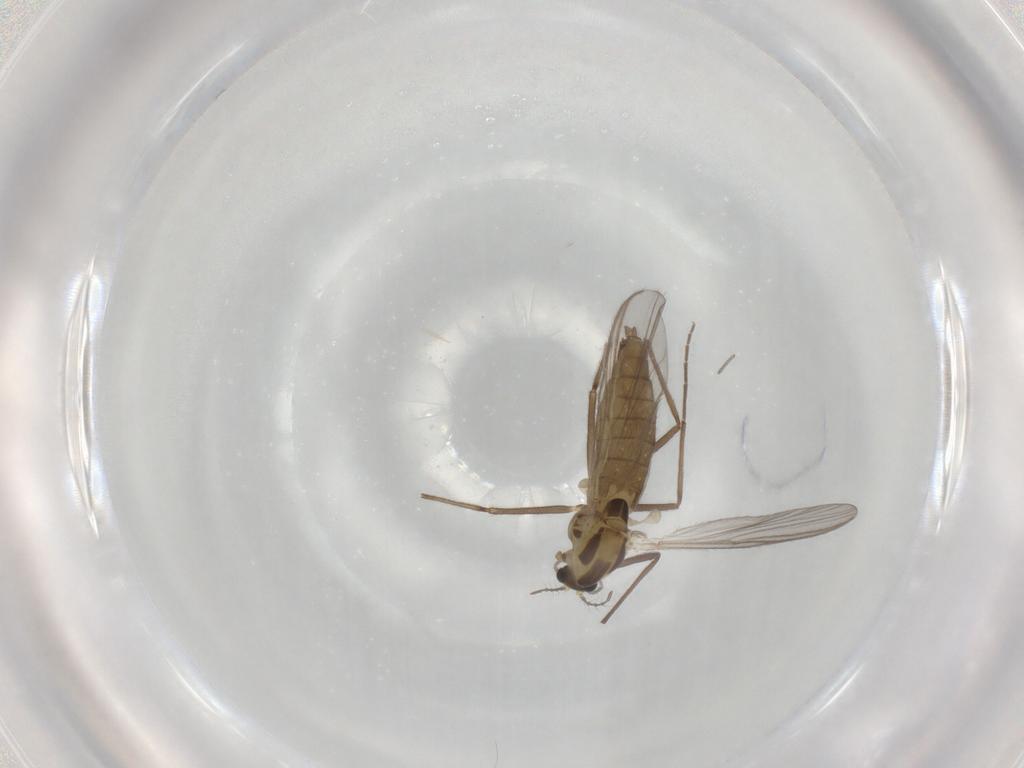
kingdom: Animalia
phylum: Arthropoda
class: Insecta
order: Diptera
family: Chironomidae
